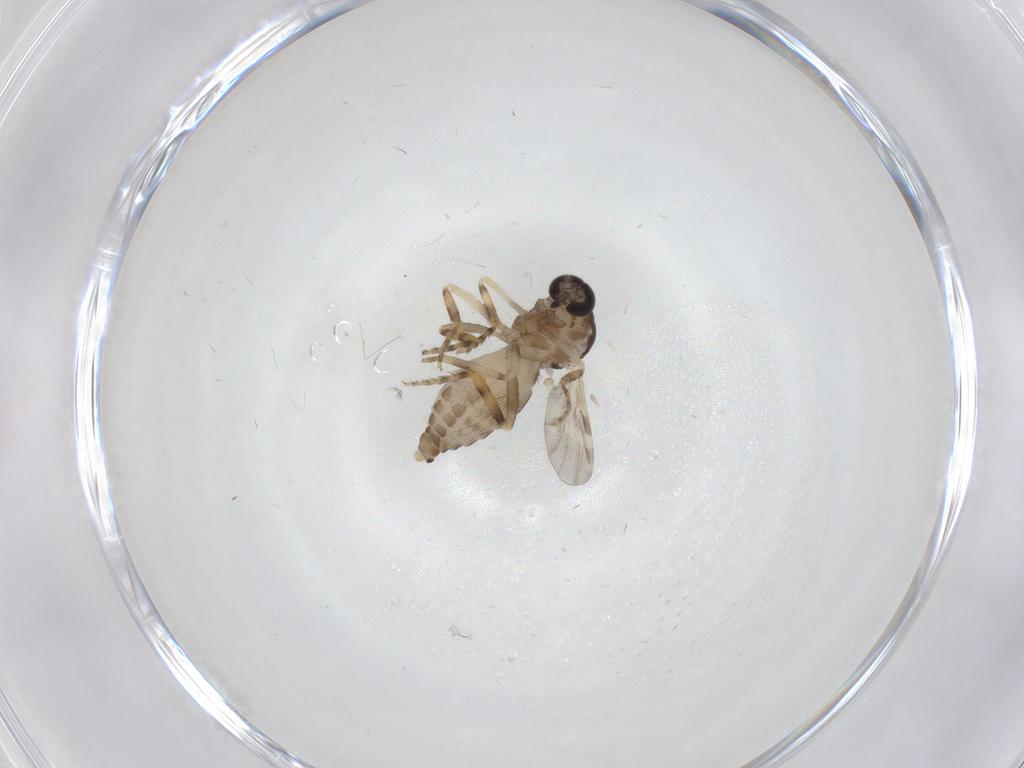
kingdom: Animalia
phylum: Arthropoda
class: Insecta
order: Diptera
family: Ceratopogonidae
